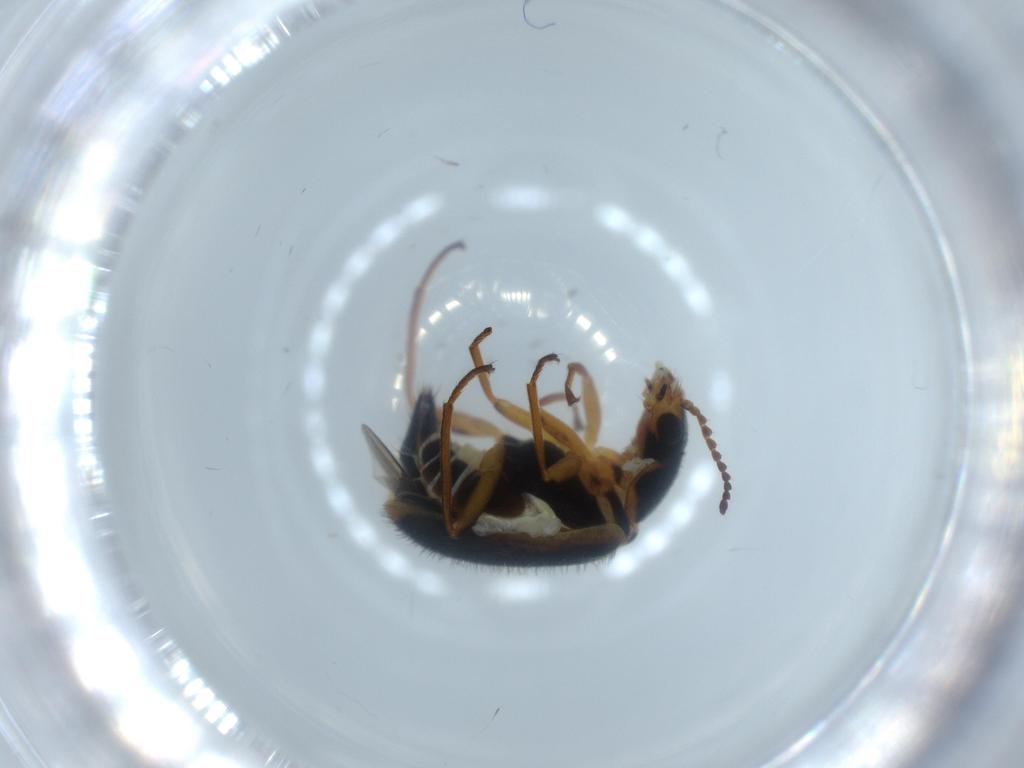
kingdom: Animalia
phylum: Arthropoda
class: Insecta
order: Coleoptera
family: Melyridae
